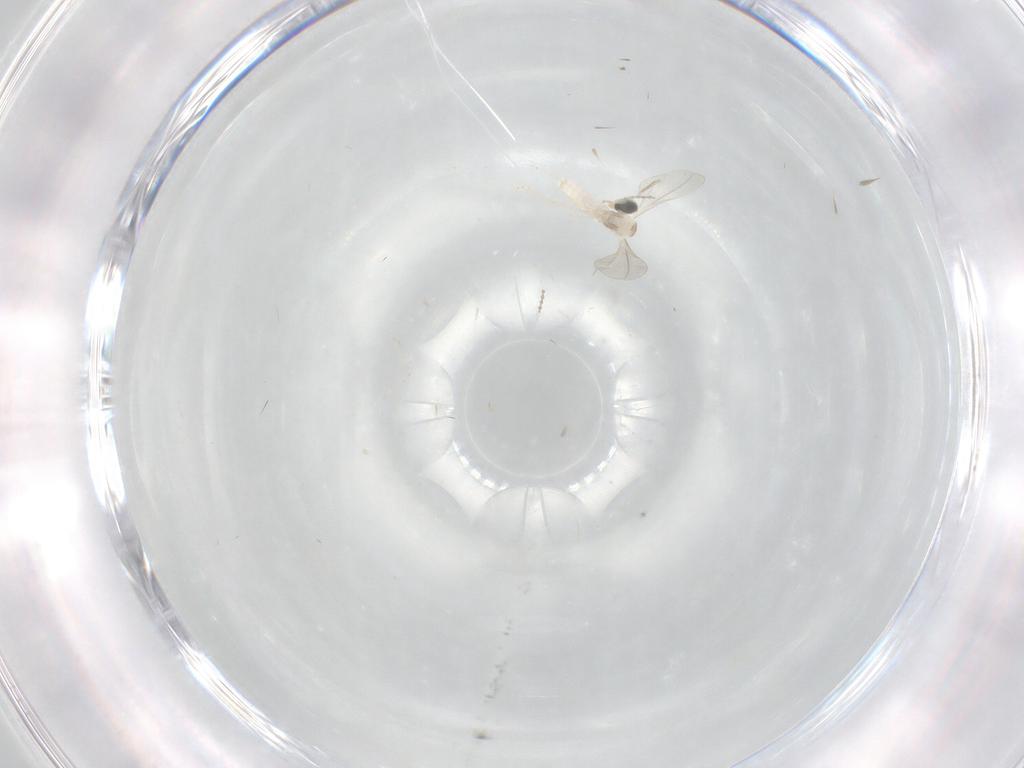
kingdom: Animalia
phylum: Arthropoda
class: Insecta
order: Diptera
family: Cecidomyiidae
